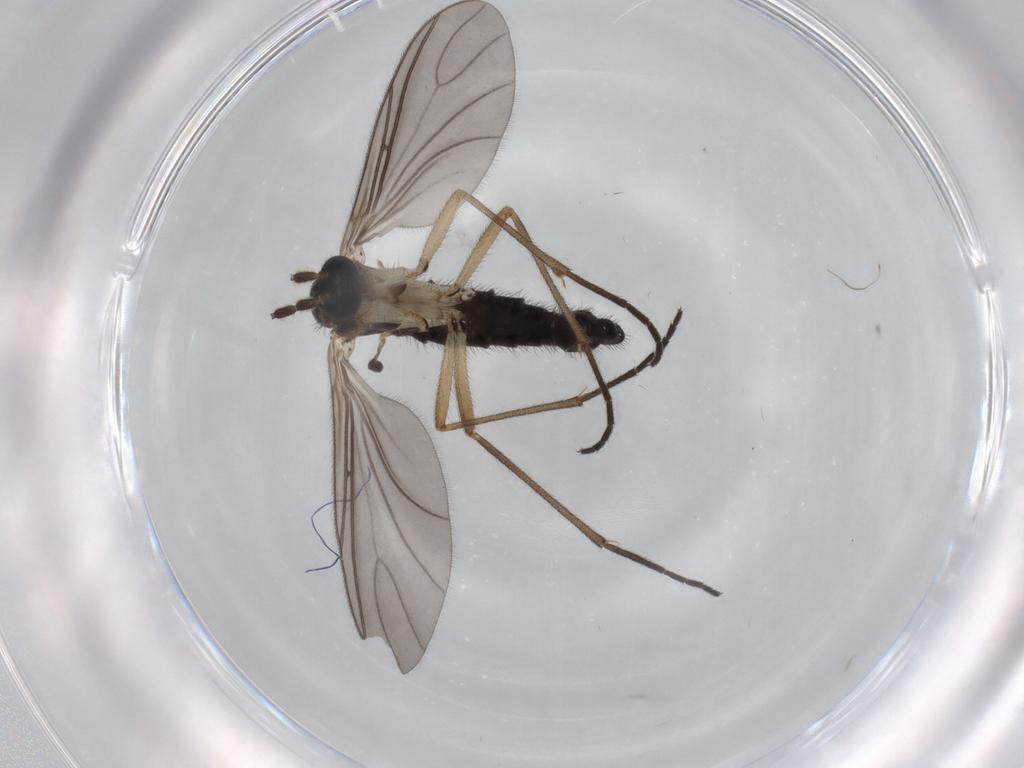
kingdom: Animalia
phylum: Arthropoda
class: Insecta
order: Diptera
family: Sciaridae
